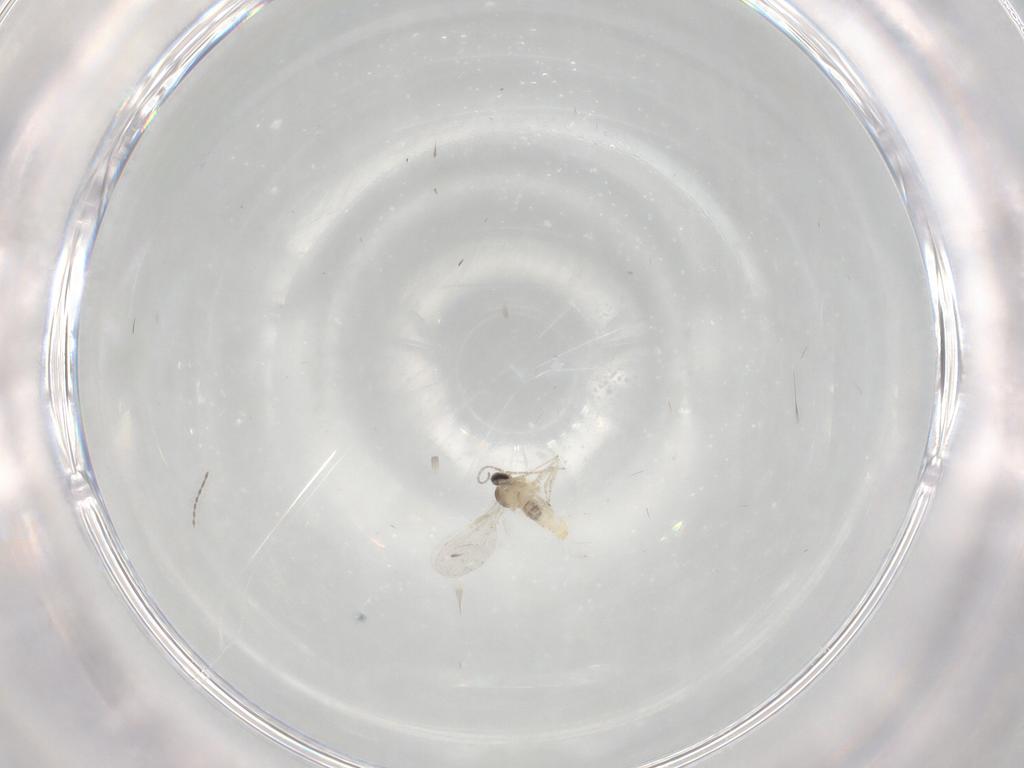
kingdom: Animalia
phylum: Arthropoda
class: Insecta
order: Diptera
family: Cecidomyiidae
